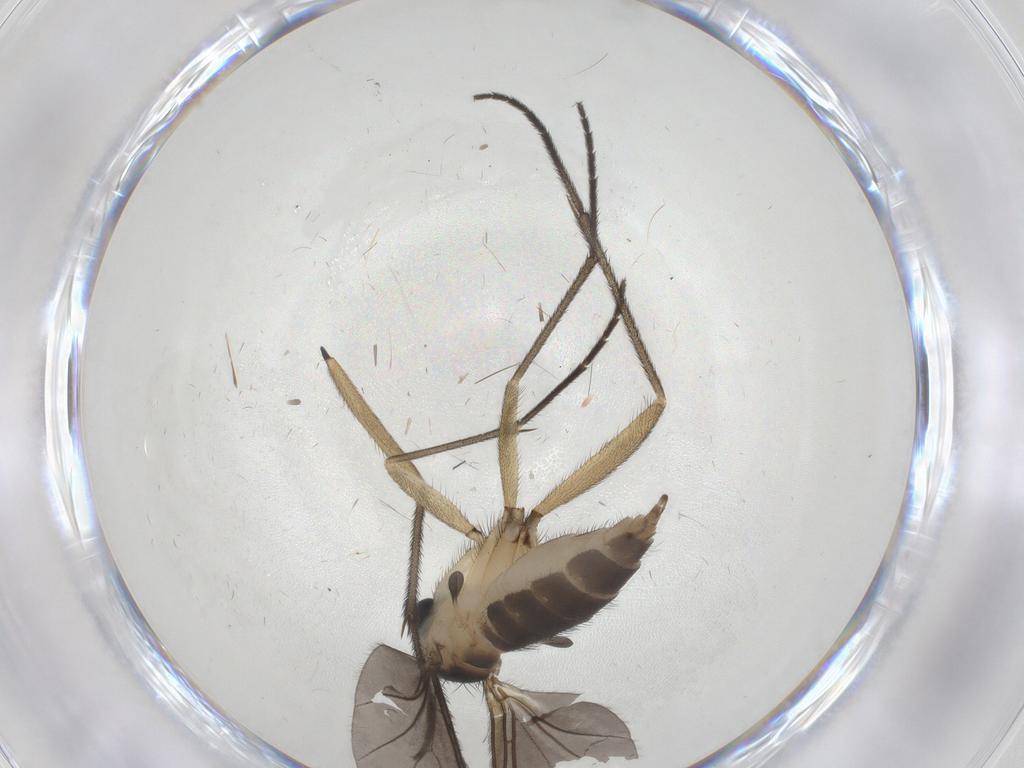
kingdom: Animalia
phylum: Arthropoda
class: Insecta
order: Diptera
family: Sciaridae
